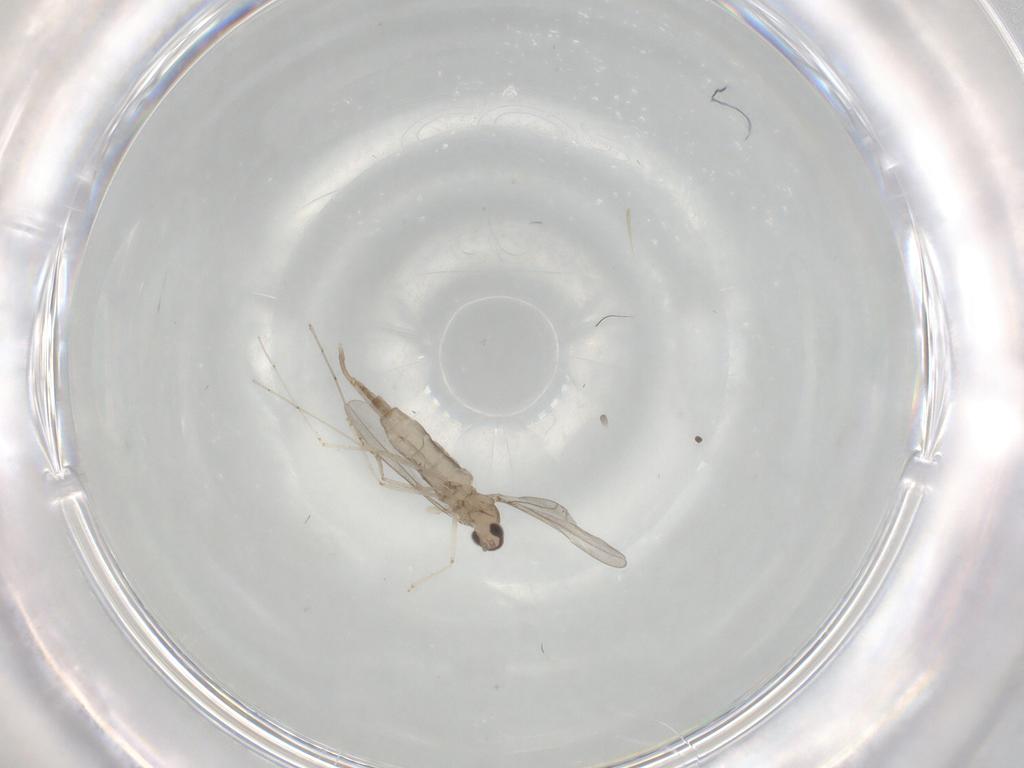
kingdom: Animalia
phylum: Arthropoda
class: Insecta
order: Diptera
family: Cecidomyiidae
